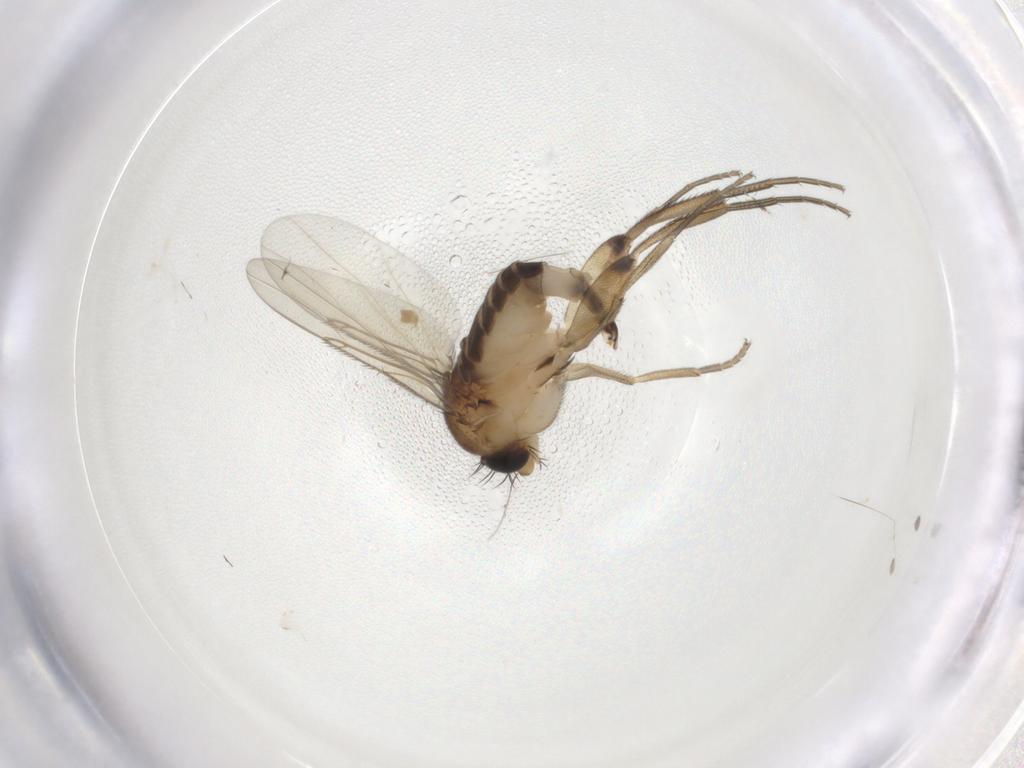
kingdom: Animalia
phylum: Arthropoda
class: Insecta
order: Diptera
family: Phoridae
